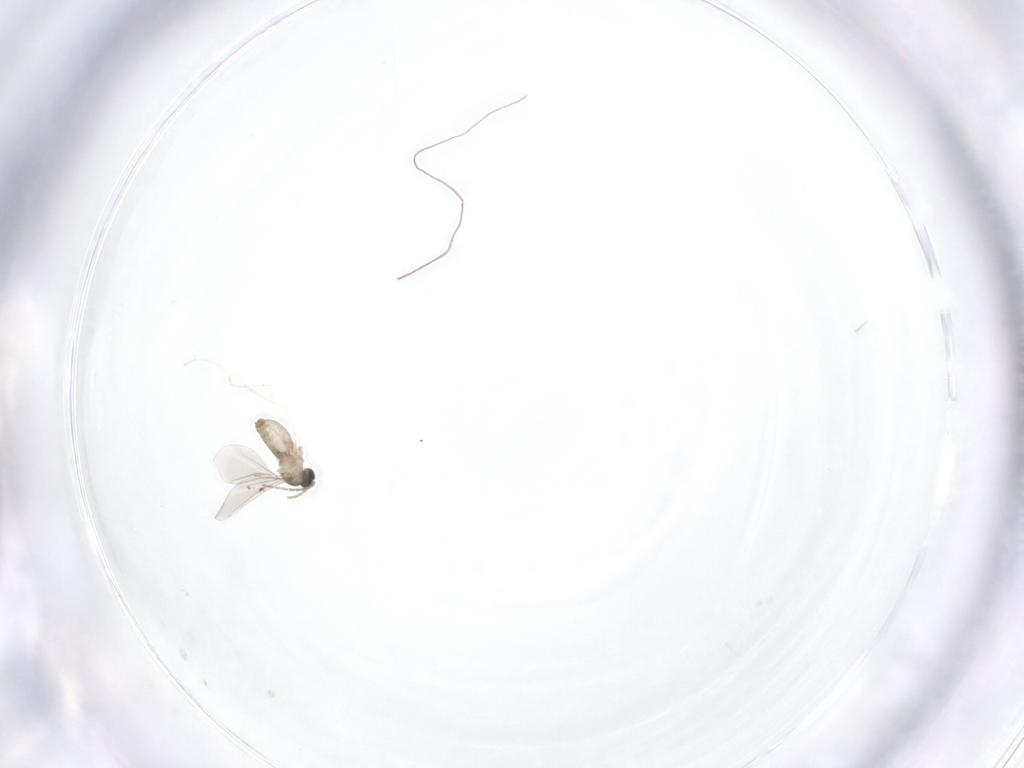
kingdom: Animalia
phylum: Arthropoda
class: Insecta
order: Diptera
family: Cecidomyiidae
